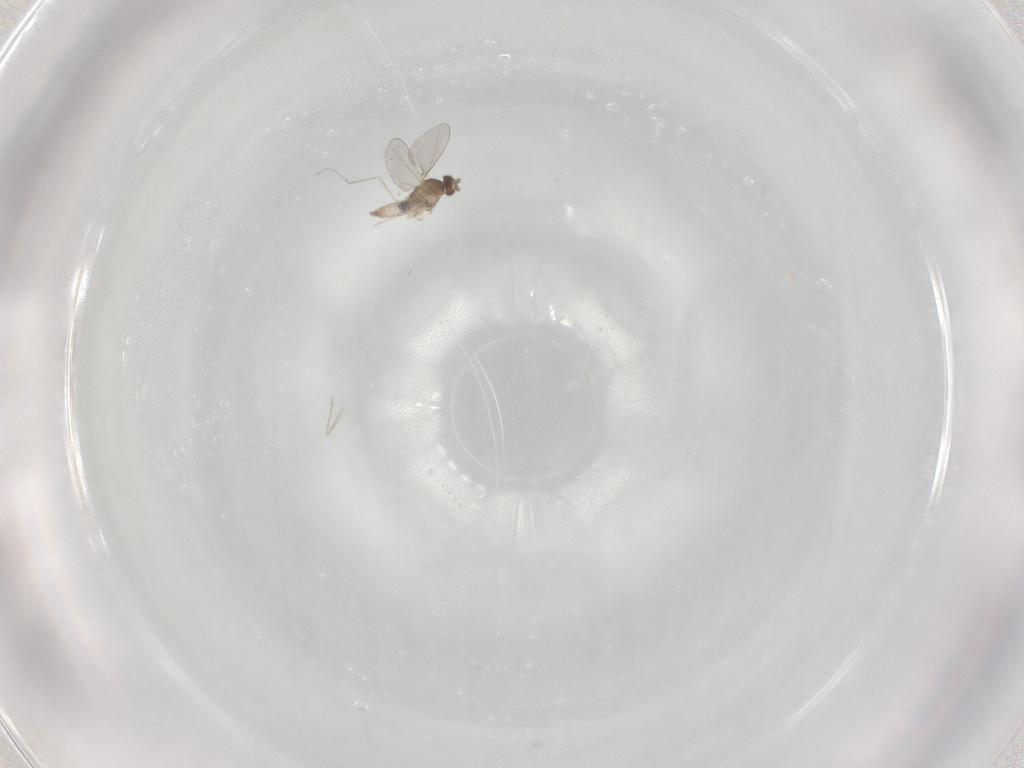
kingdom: Animalia
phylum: Arthropoda
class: Insecta
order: Diptera
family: Cecidomyiidae
